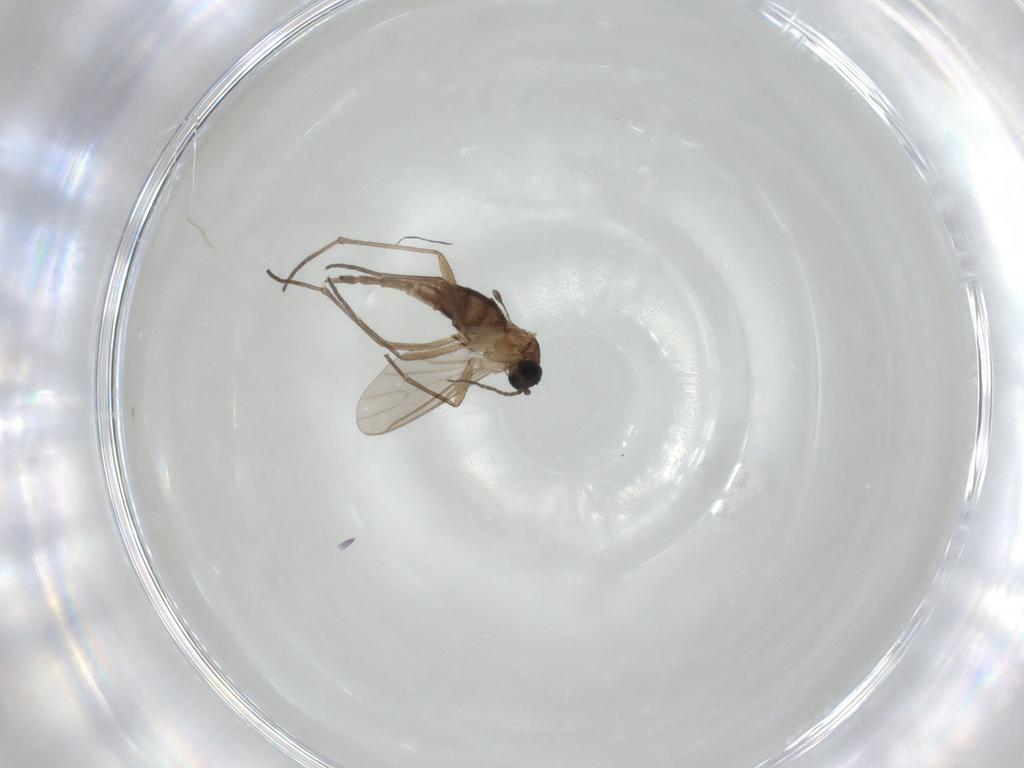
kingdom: Animalia
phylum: Arthropoda
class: Insecta
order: Diptera
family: Sciaridae
